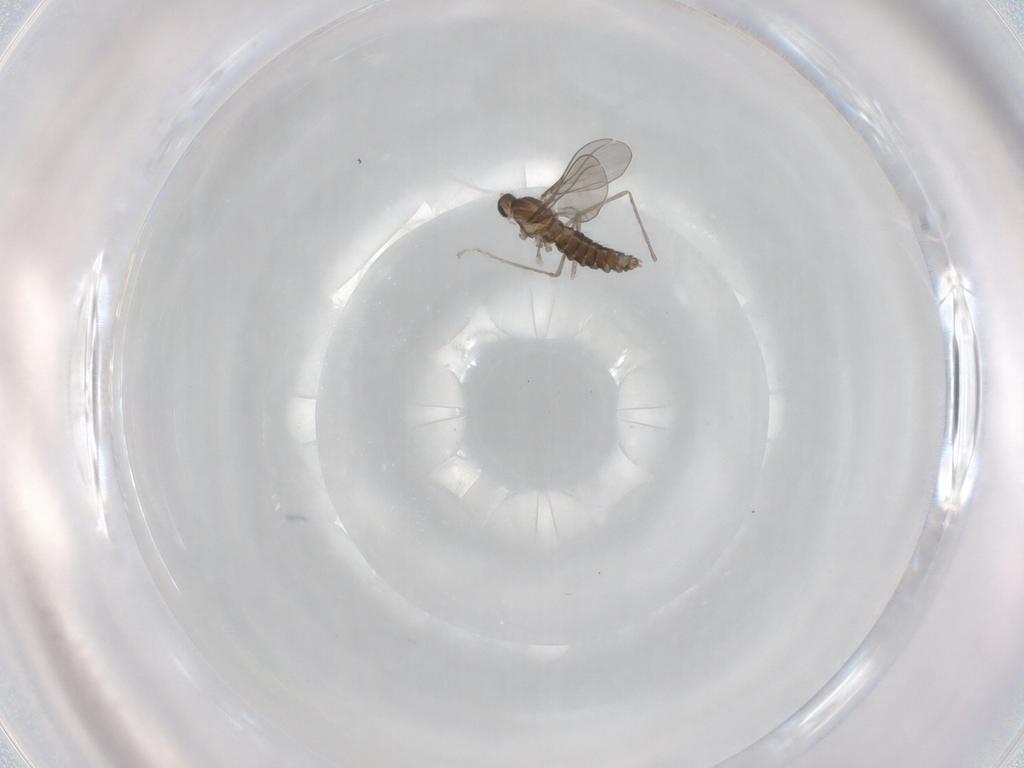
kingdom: Animalia
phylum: Arthropoda
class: Insecta
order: Diptera
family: Cecidomyiidae
